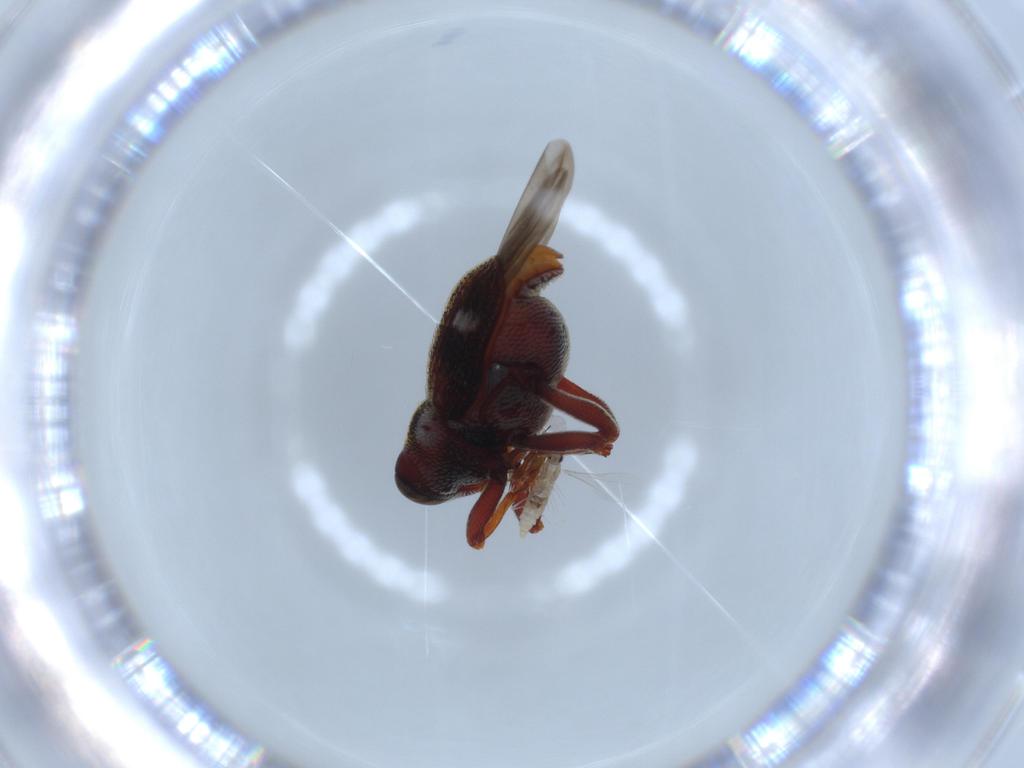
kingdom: Animalia
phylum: Arthropoda
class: Insecta
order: Coleoptera
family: Curculionidae
